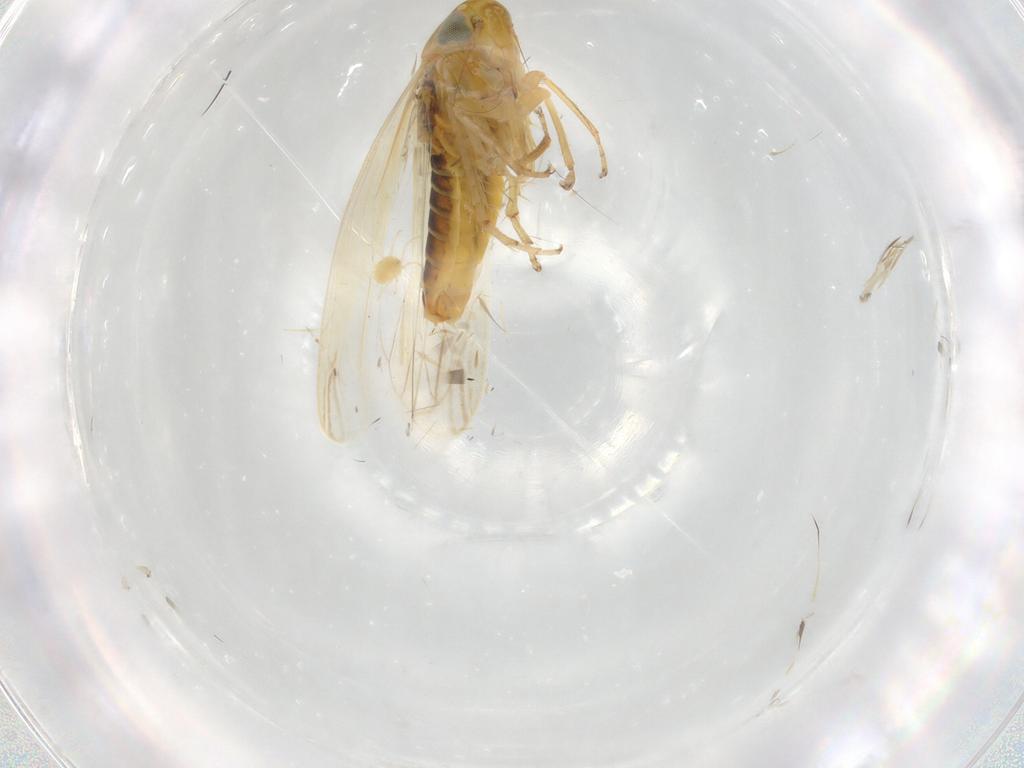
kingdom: Animalia
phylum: Arthropoda
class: Insecta
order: Hemiptera
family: Cicadellidae
